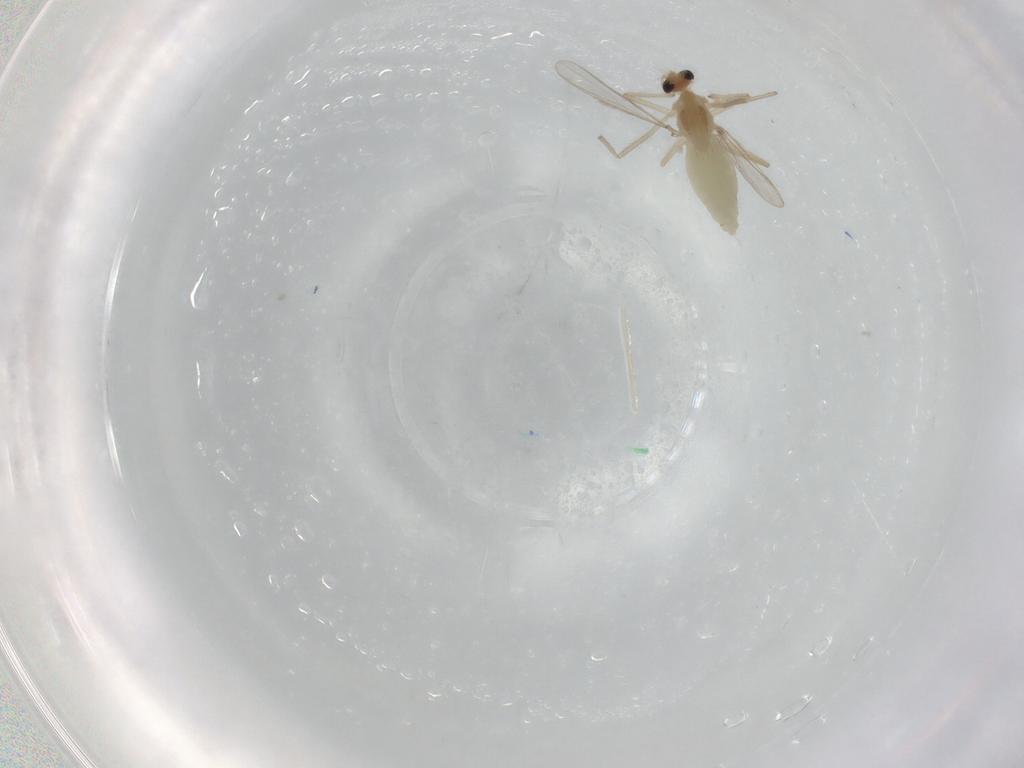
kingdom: Animalia
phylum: Arthropoda
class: Insecta
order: Diptera
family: Chironomidae
